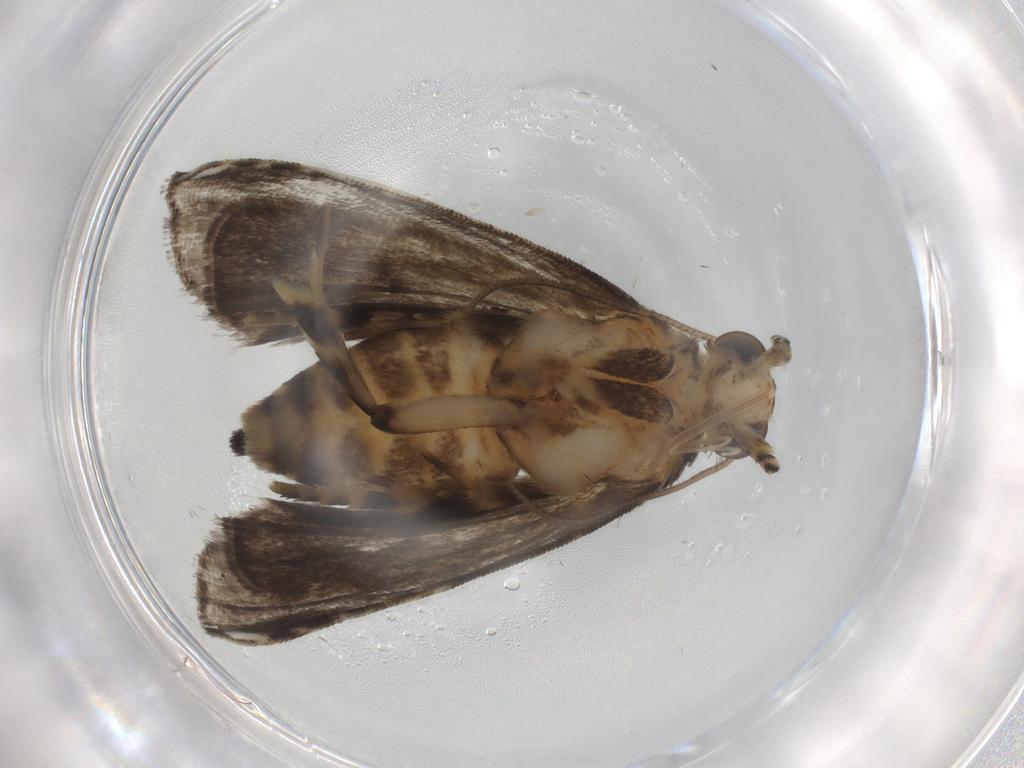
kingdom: Animalia
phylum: Arthropoda
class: Insecta
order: Lepidoptera
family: Immidae
